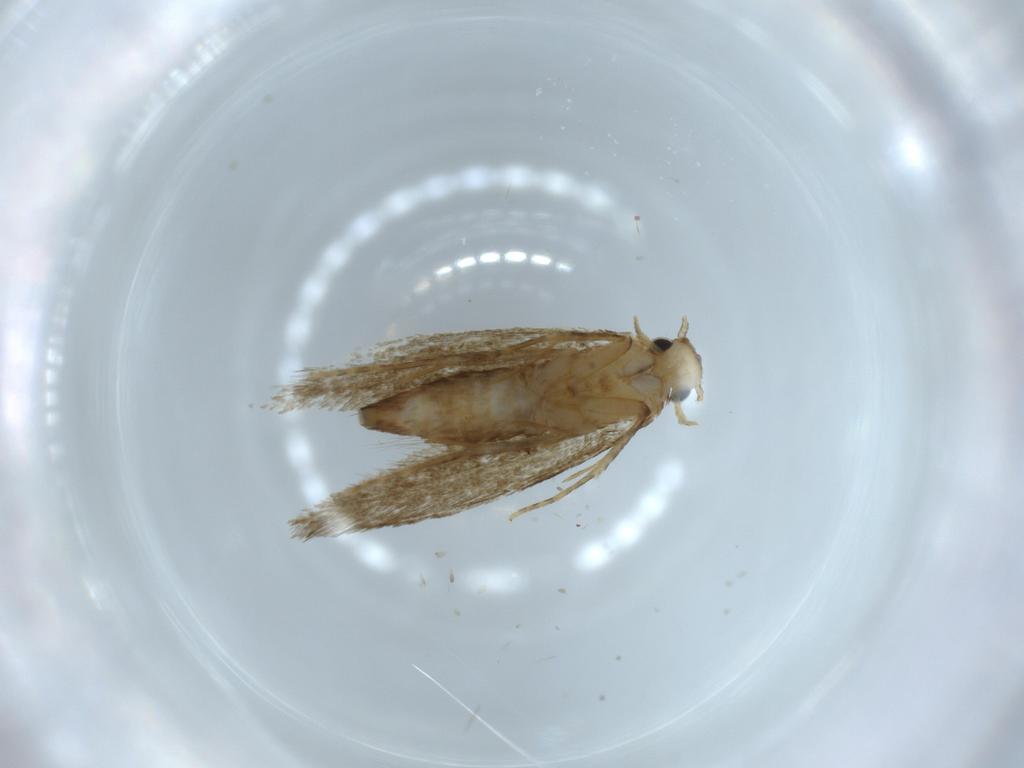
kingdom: Animalia
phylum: Arthropoda
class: Insecta
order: Lepidoptera
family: Tineidae
